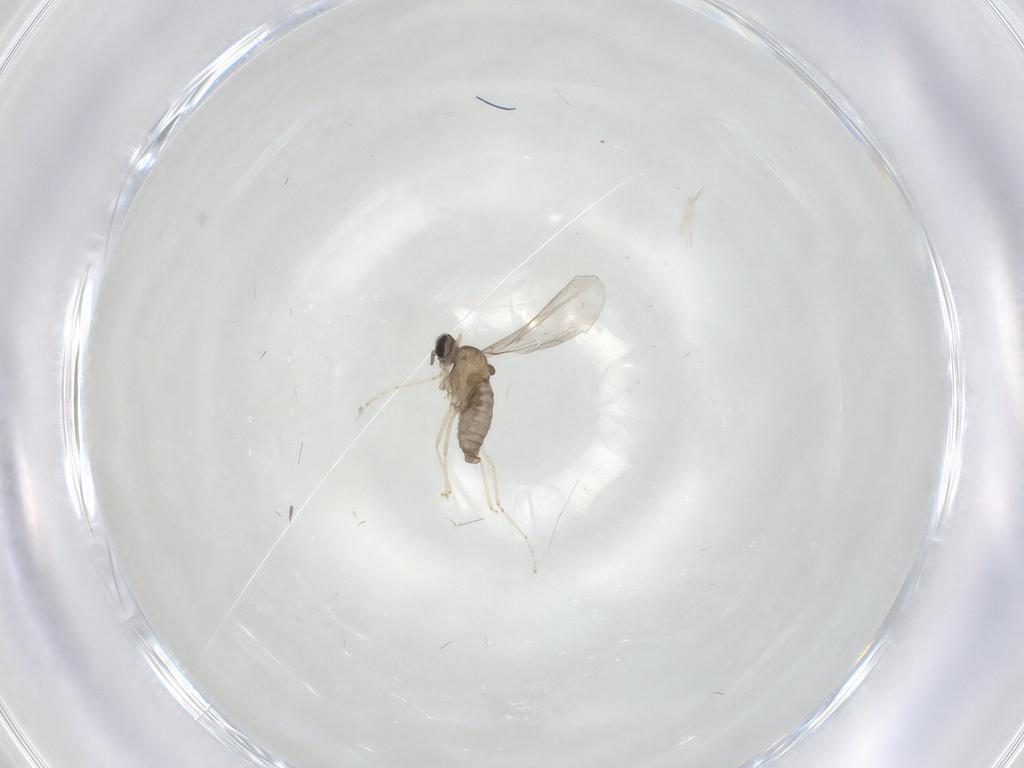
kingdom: Animalia
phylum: Arthropoda
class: Insecta
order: Diptera
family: Cecidomyiidae
